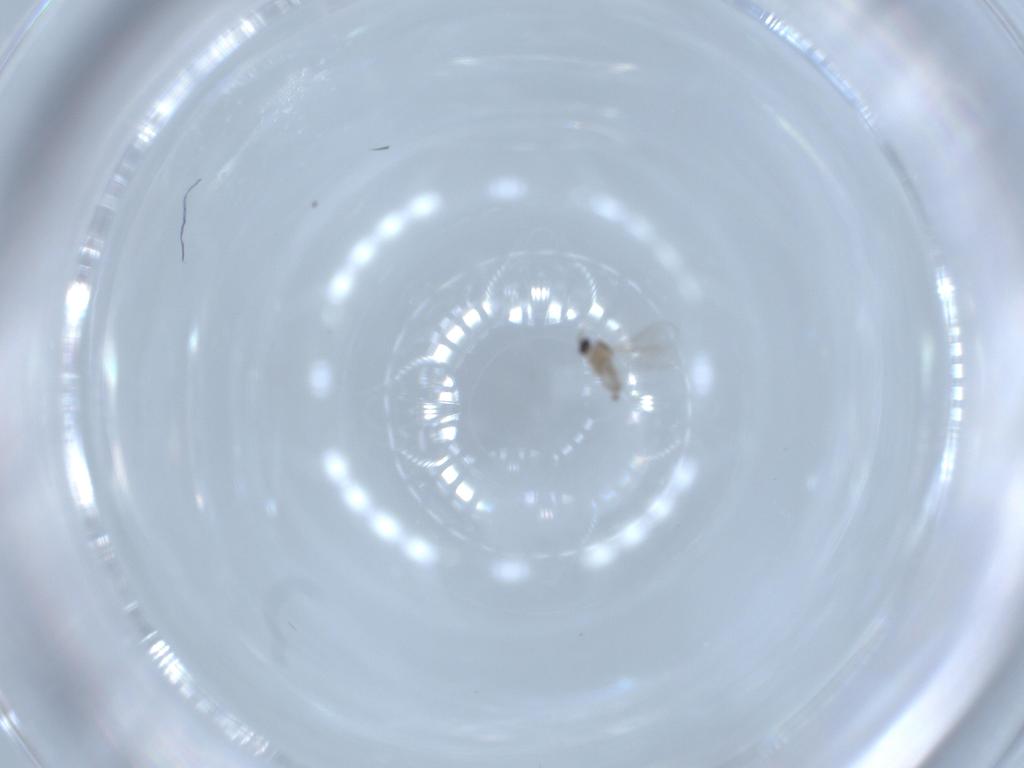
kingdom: Animalia
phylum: Arthropoda
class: Insecta
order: Diptera
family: Cecidomyiidae
